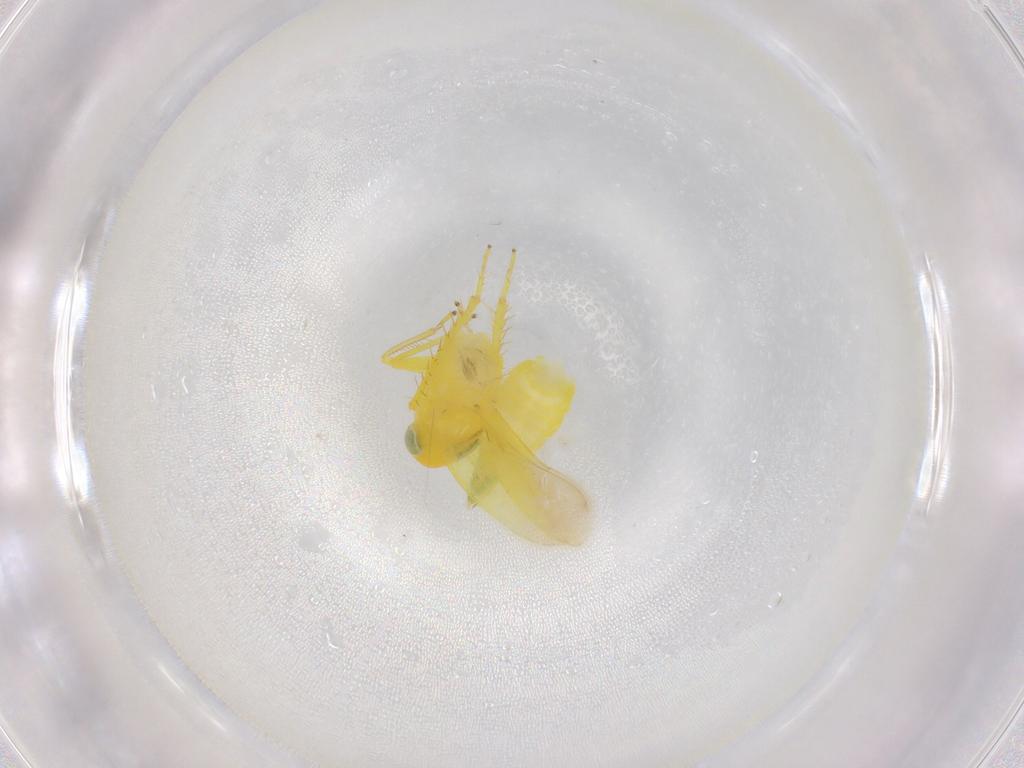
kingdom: Animalia
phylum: Arthropoda
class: Insecta
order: Hemiptera
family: Cicadellidae
